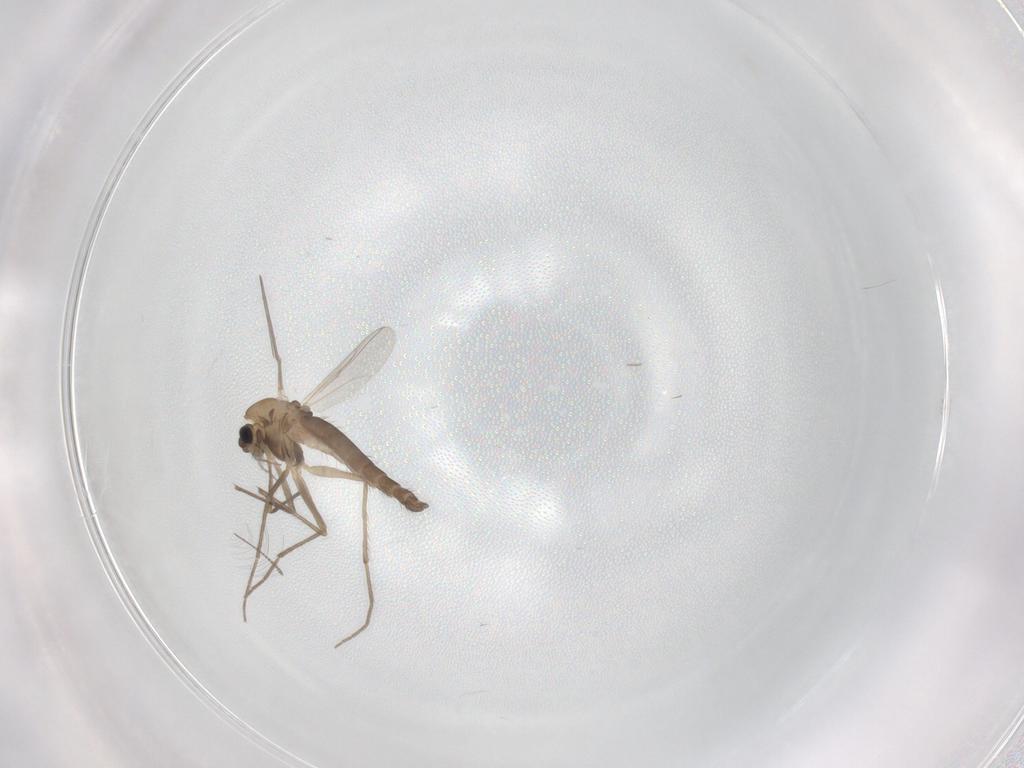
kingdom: Animalia
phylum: Arthropoda
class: Insecta
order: Diptera
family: Chironomidae
